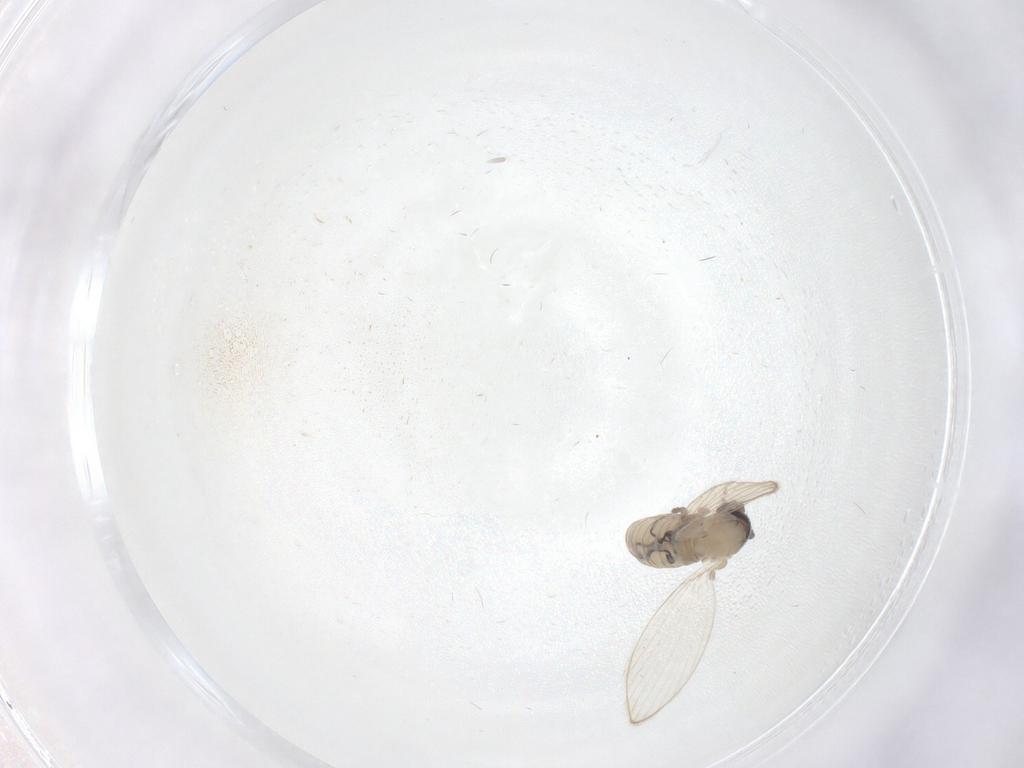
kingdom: Animalia
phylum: Arthropoda
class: Insecta
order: Diptera
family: Psychodidae
